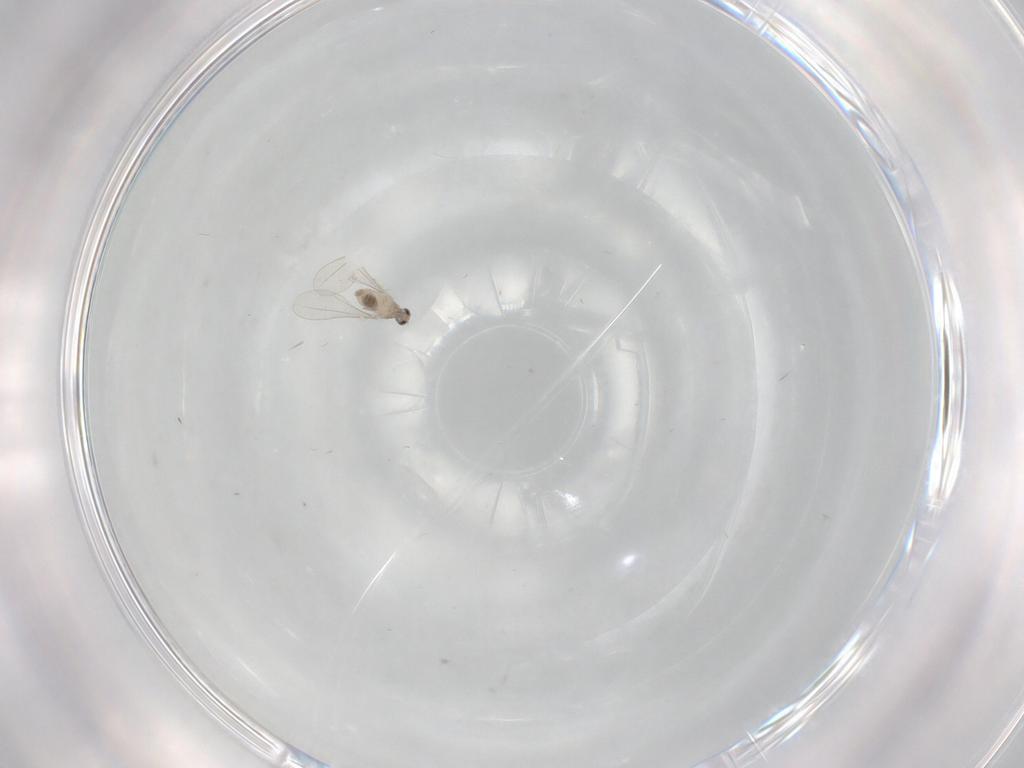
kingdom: Animalia
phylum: Arthropoda
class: Insecta
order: Diptera
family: Cecidomyiidae
